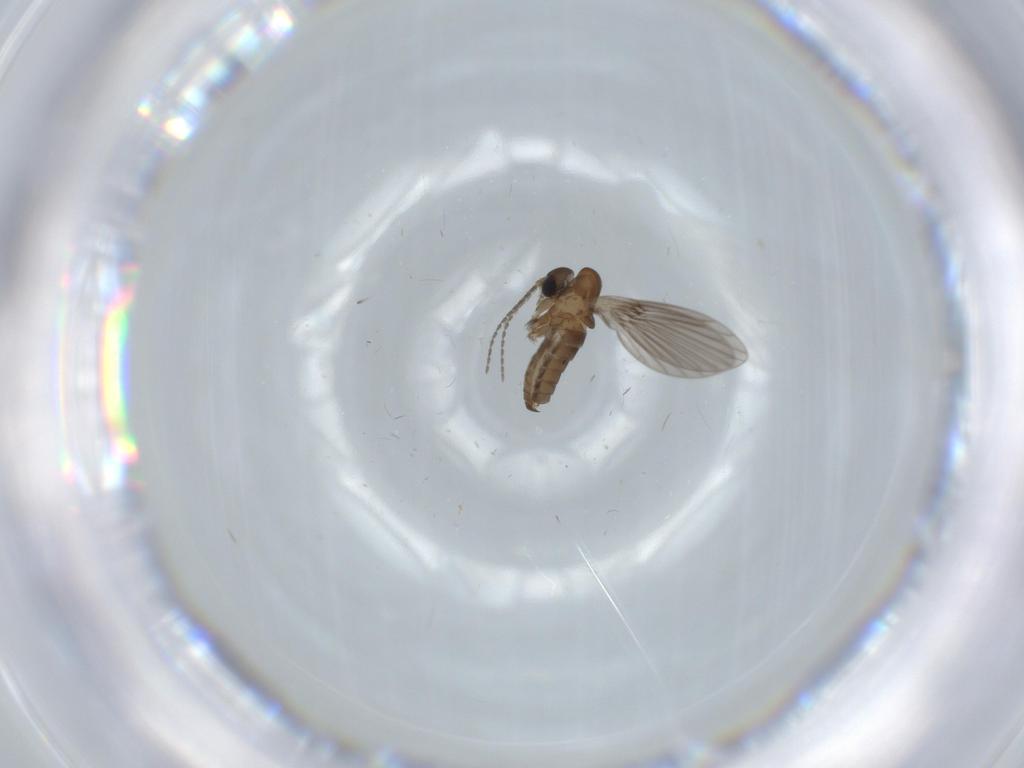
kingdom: Animalia
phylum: Arthropoda
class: Insecta
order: Diptera
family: Psychodidae
